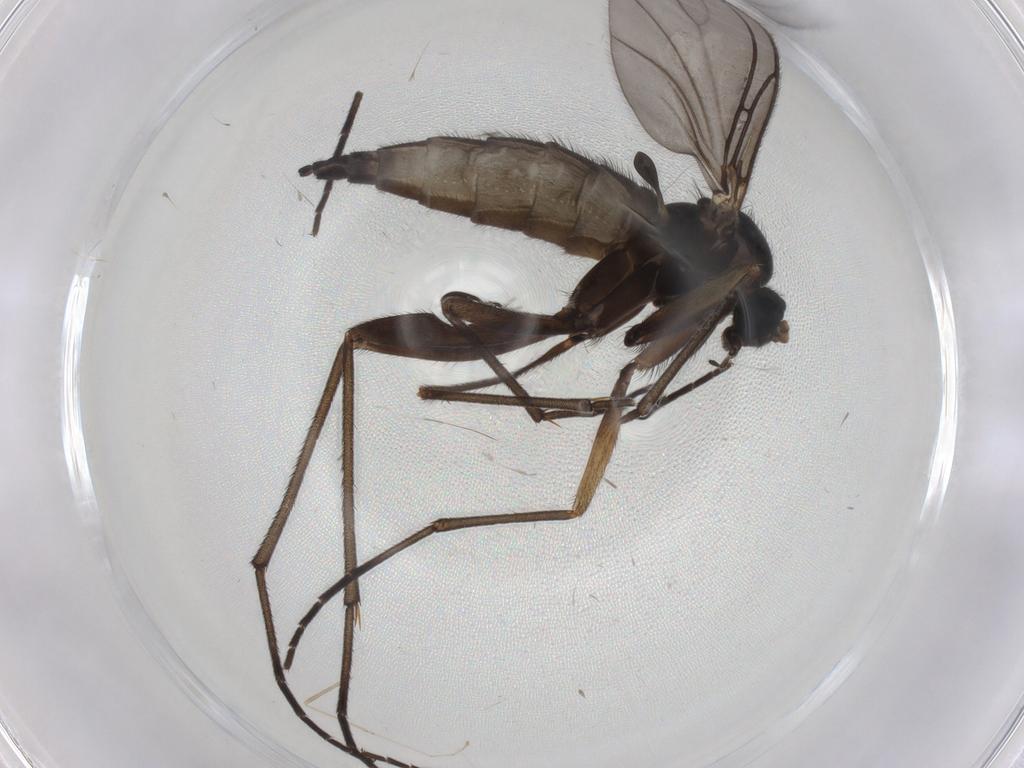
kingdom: Animalia
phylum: Arthropoda
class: Insecta
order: Diptera
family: Sciaridae
